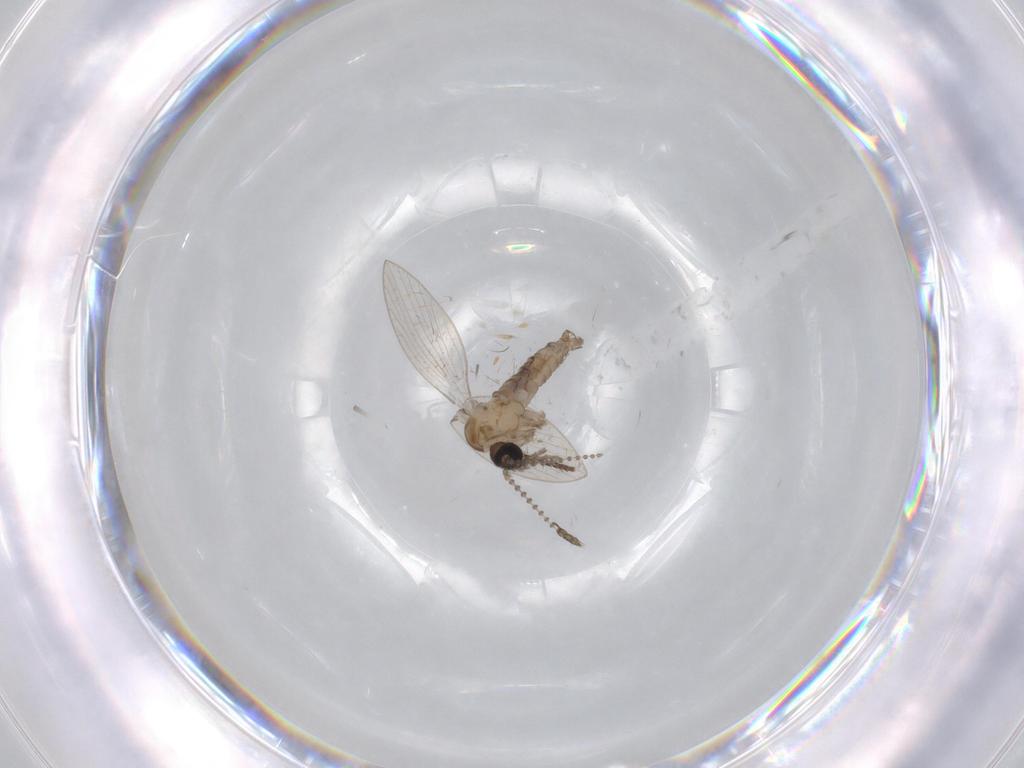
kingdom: Animalia
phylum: Arthropoda
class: Insecta
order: Diptera
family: Psychodidae
